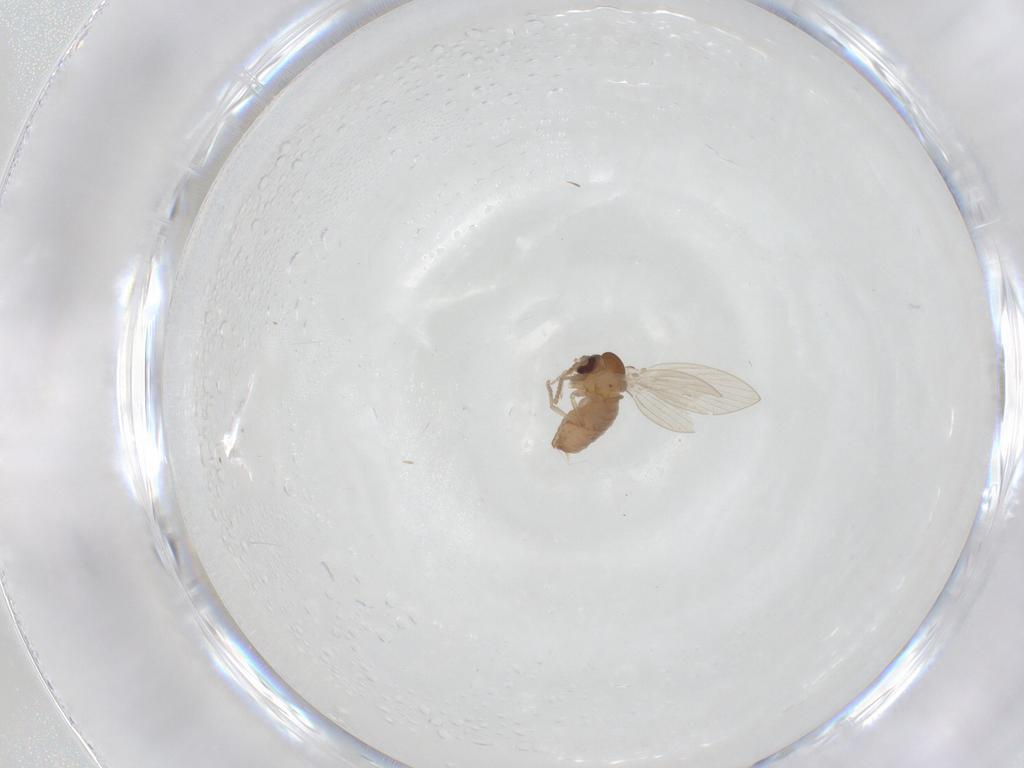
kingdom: Animalia
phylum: Arthropoda
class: Insecta
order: Diptera
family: Psychodidae
